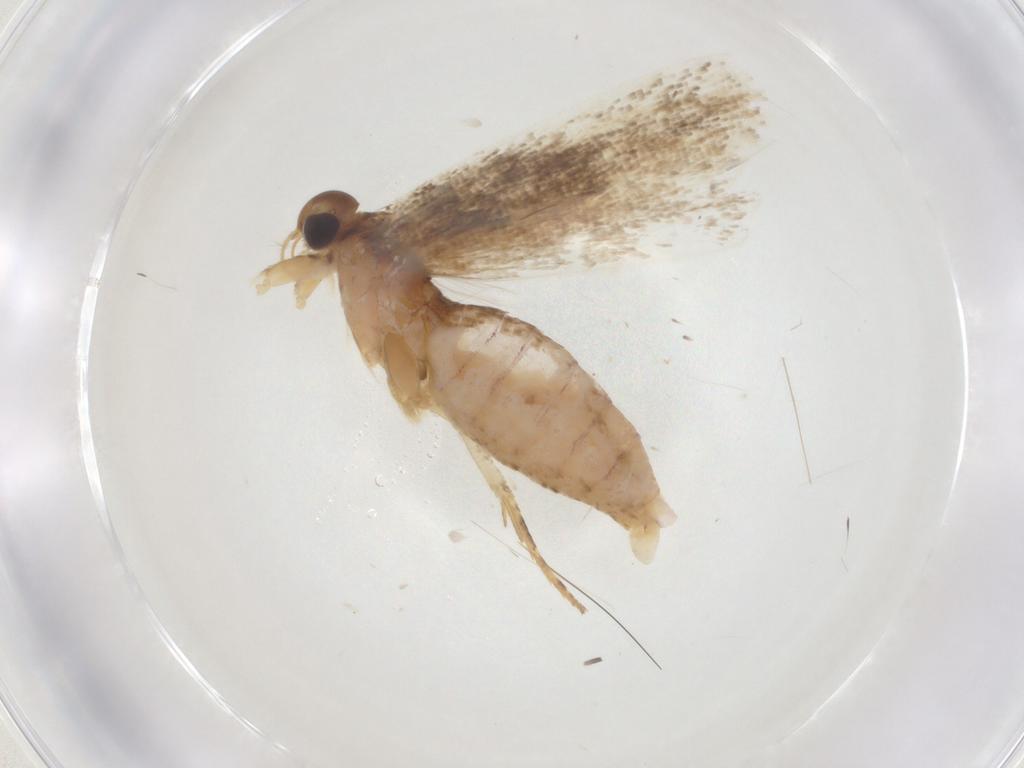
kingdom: Animalia
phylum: Arthropoda
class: Insecta
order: Lepidoptera
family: Gelechiidae
